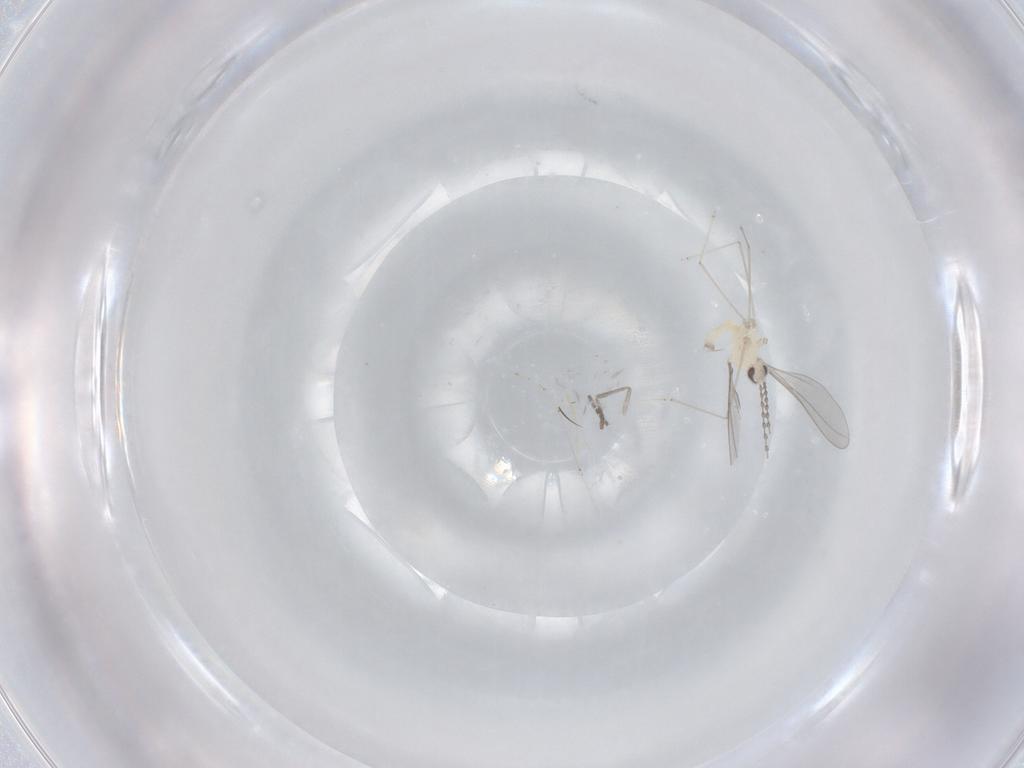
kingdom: Animalia
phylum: Arthropoda
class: Insecta
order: Diptera
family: Cecidomyiidae
